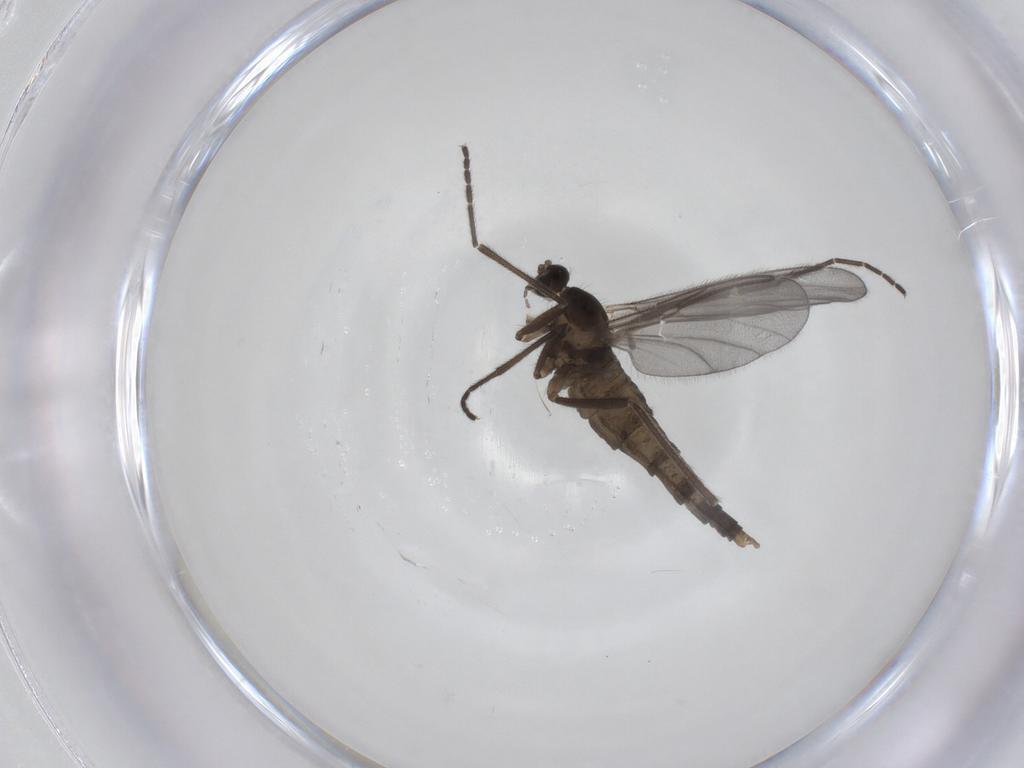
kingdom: Animalia
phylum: Arthropoda
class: Insecta
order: Diptera
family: Cecidomyiidae
